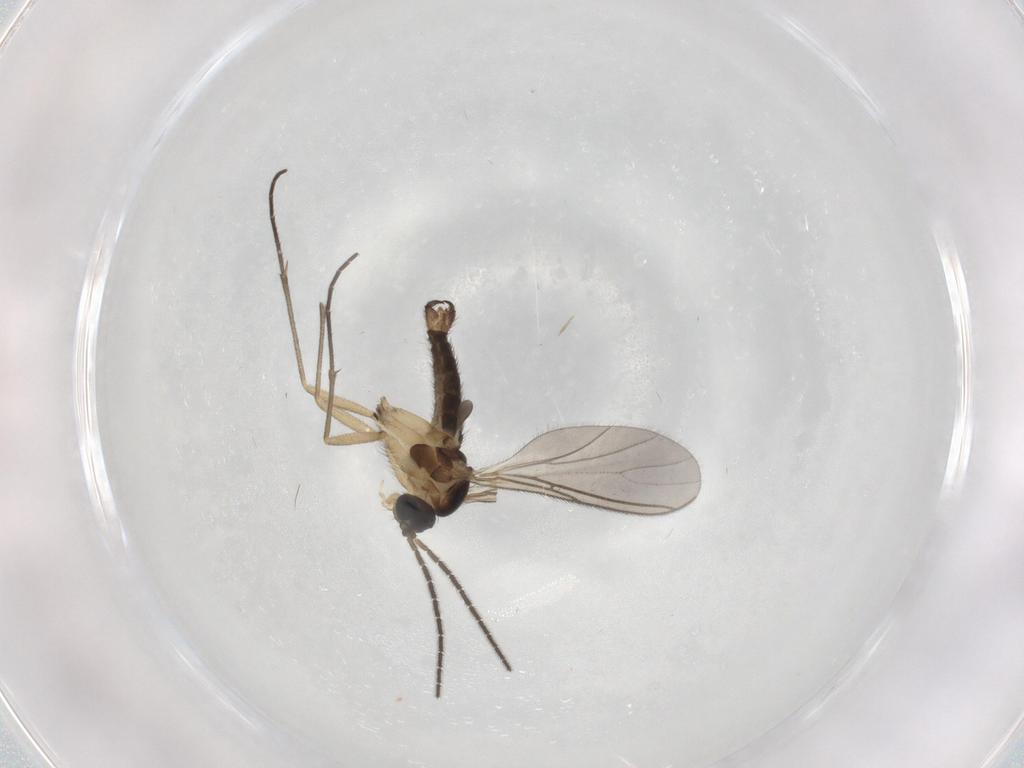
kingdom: Animalia
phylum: Arthropoda
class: Insecta
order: Diptera
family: Sciaridae
